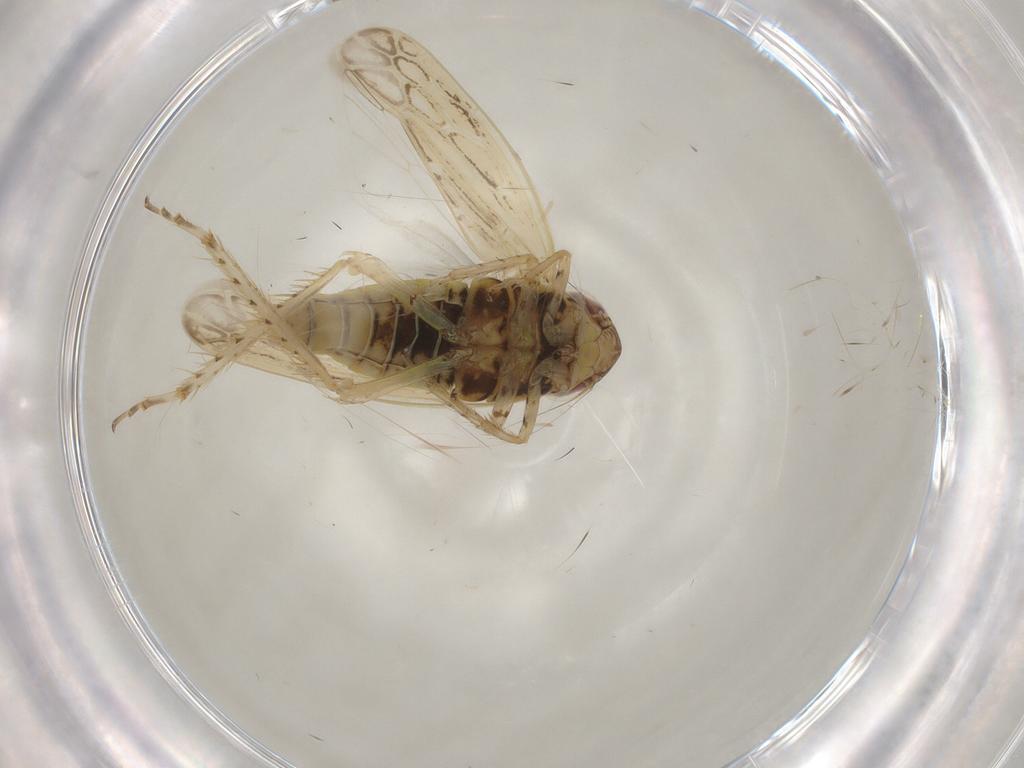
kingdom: Animalia
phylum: Arthropoda
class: Insecta
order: Hemiptera
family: Cicadellidae
